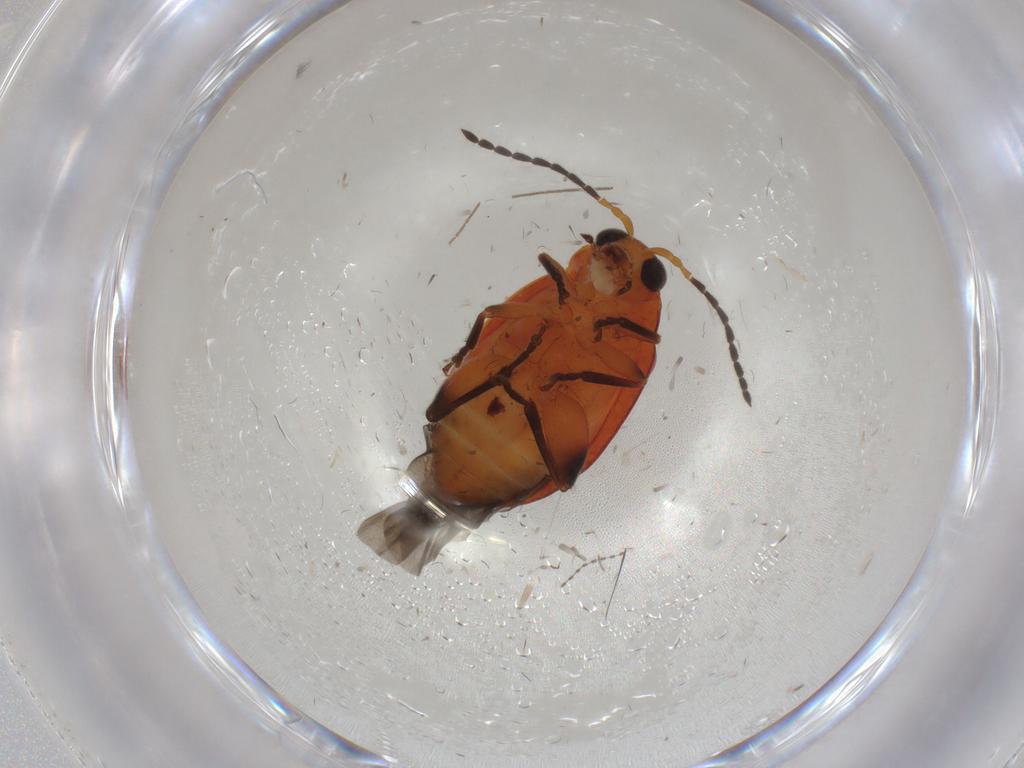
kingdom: Animalia
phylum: Arthropoda
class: Insecta
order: Coleoptera
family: Chrysomelidae
